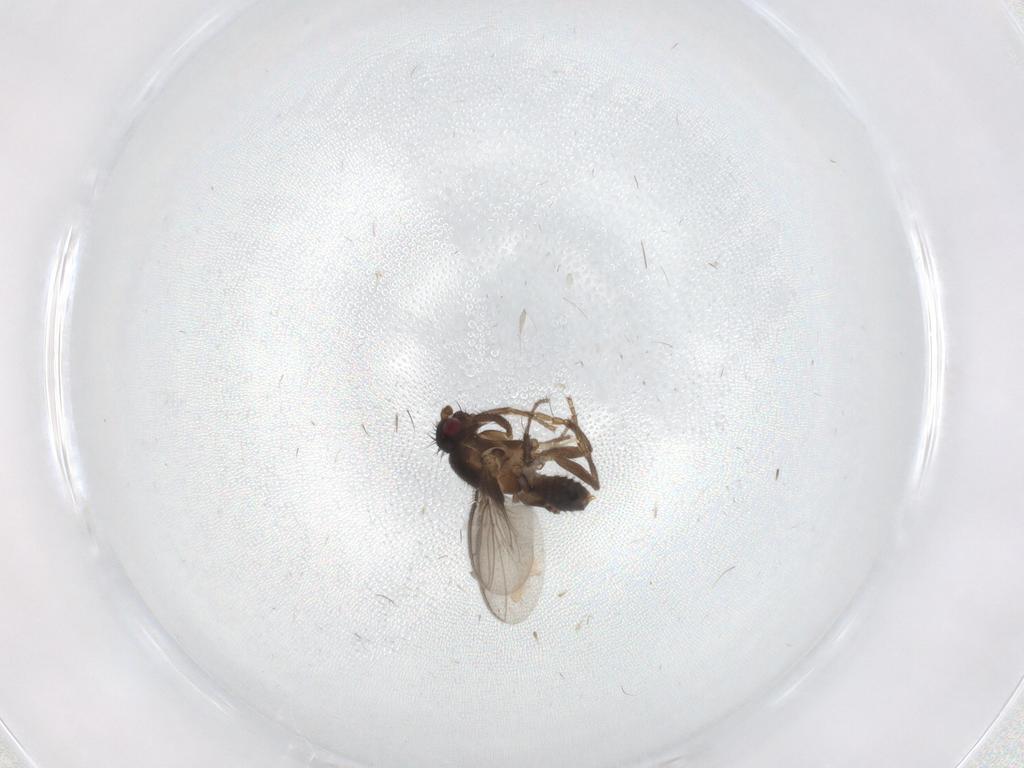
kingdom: Animalia
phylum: Arthropoda
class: Insecta
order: Diptera
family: Sphaeroceridae
